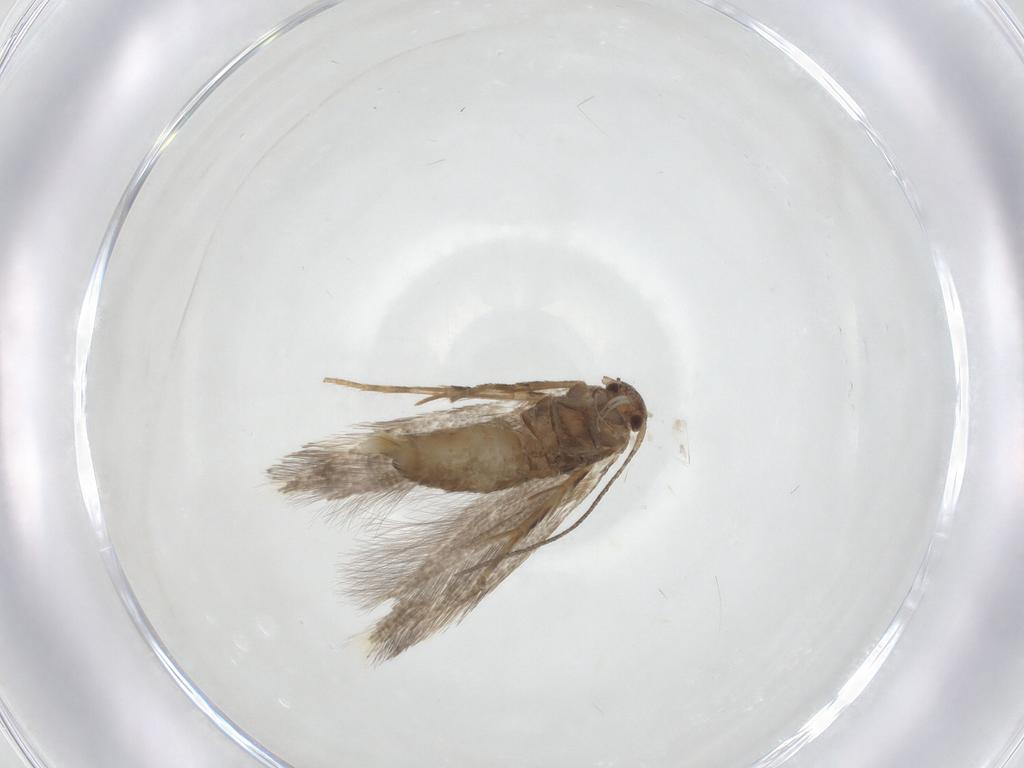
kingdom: Animalia
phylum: Arthropoda
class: Insecta
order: Lepidoptera
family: Elachistidae
